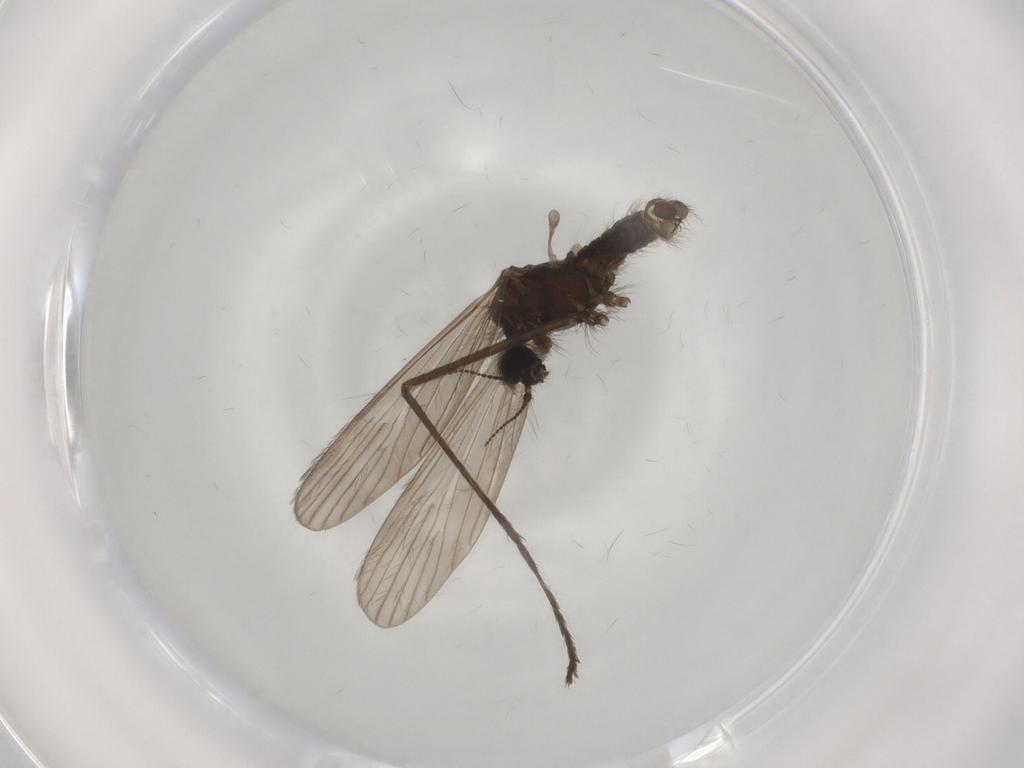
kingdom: Animalia
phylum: Arthropoda
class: Insecta
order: Diptera
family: Limoniidae
